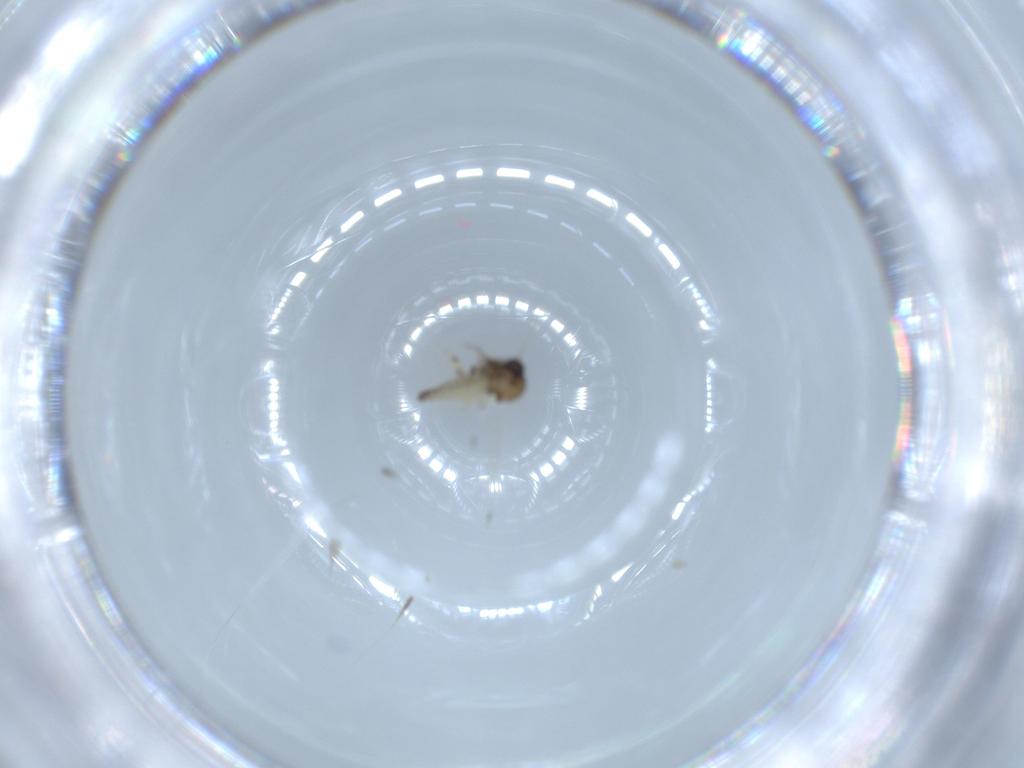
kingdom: Animalia
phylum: Arthropoda
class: Insecta
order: Diptera
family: Ceratopogonidae
